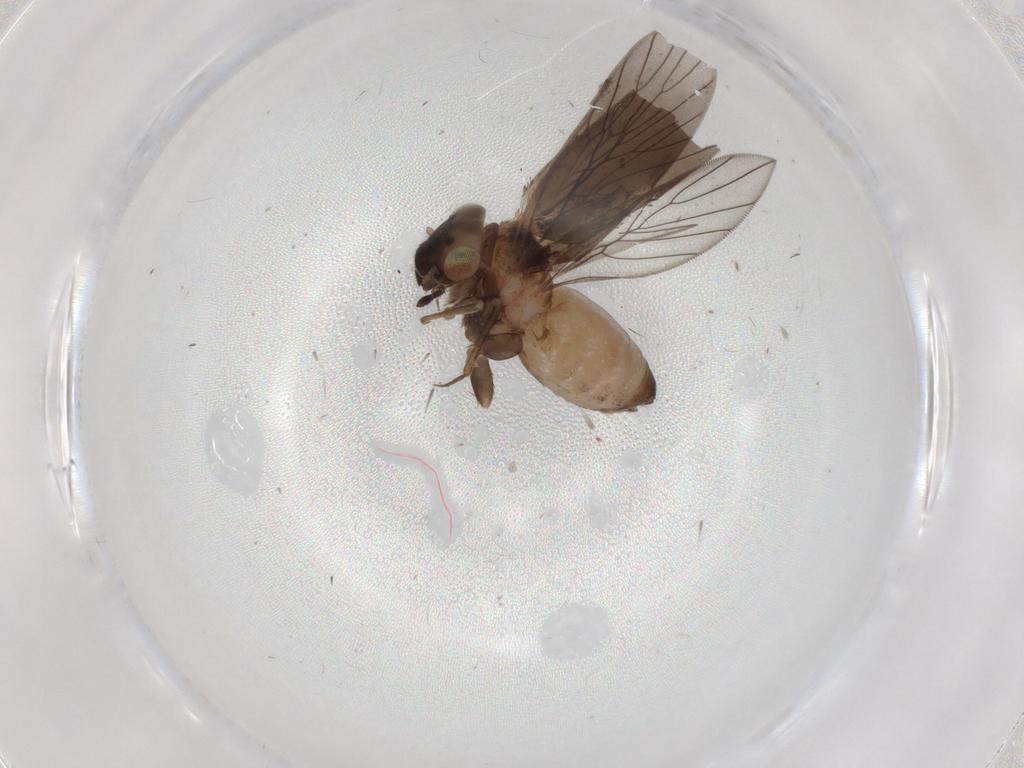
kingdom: Animalia
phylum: Arthropoda
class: Insecta
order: Psocodea
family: Lepidopsocidae
